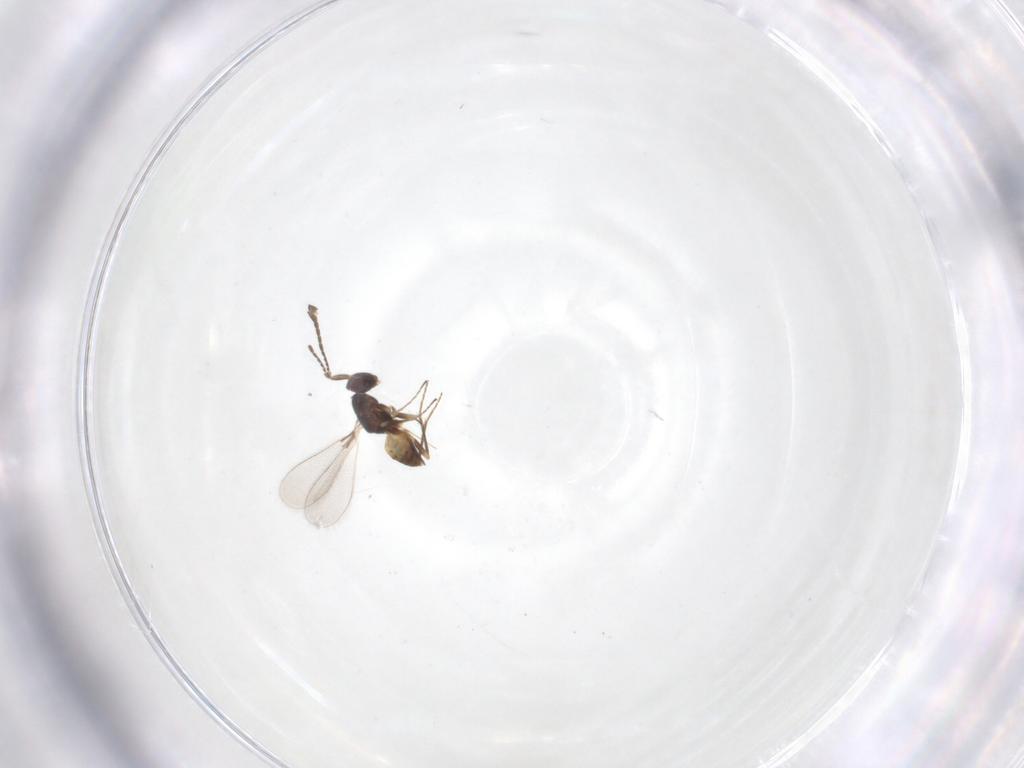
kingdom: Animalia
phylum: Arthropoda
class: Insecta
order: Hymenoptera
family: Mymaridae
